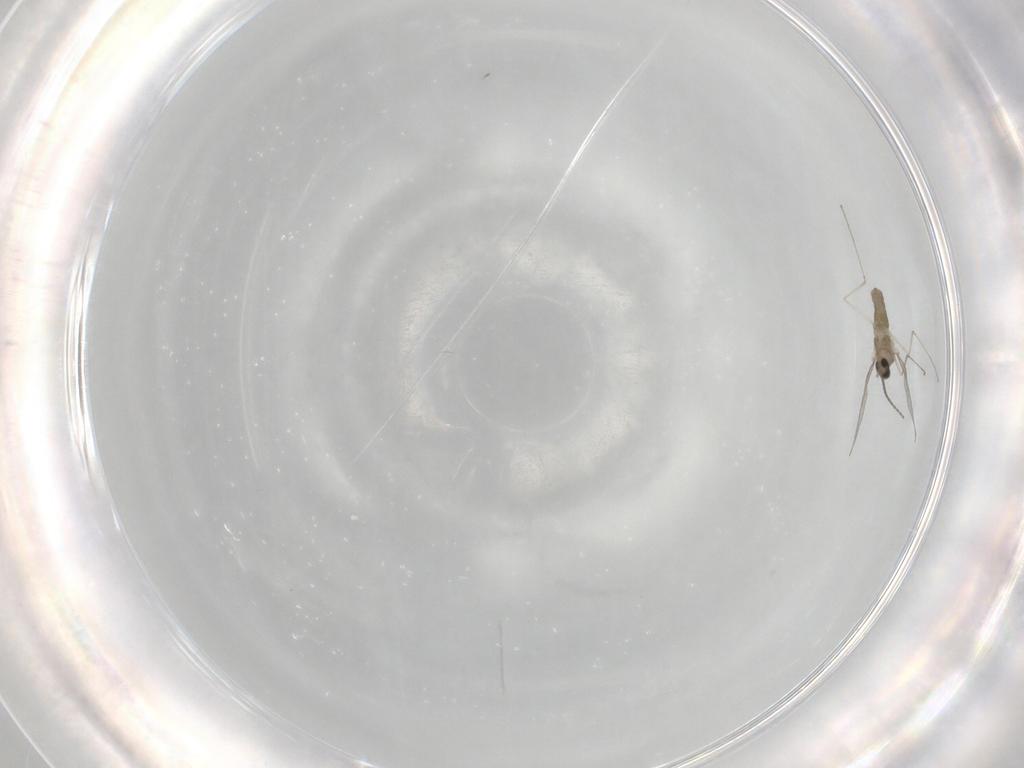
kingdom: Animalia
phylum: Arthropoda
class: Insecta
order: Diptera
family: Cecidomyiidae
